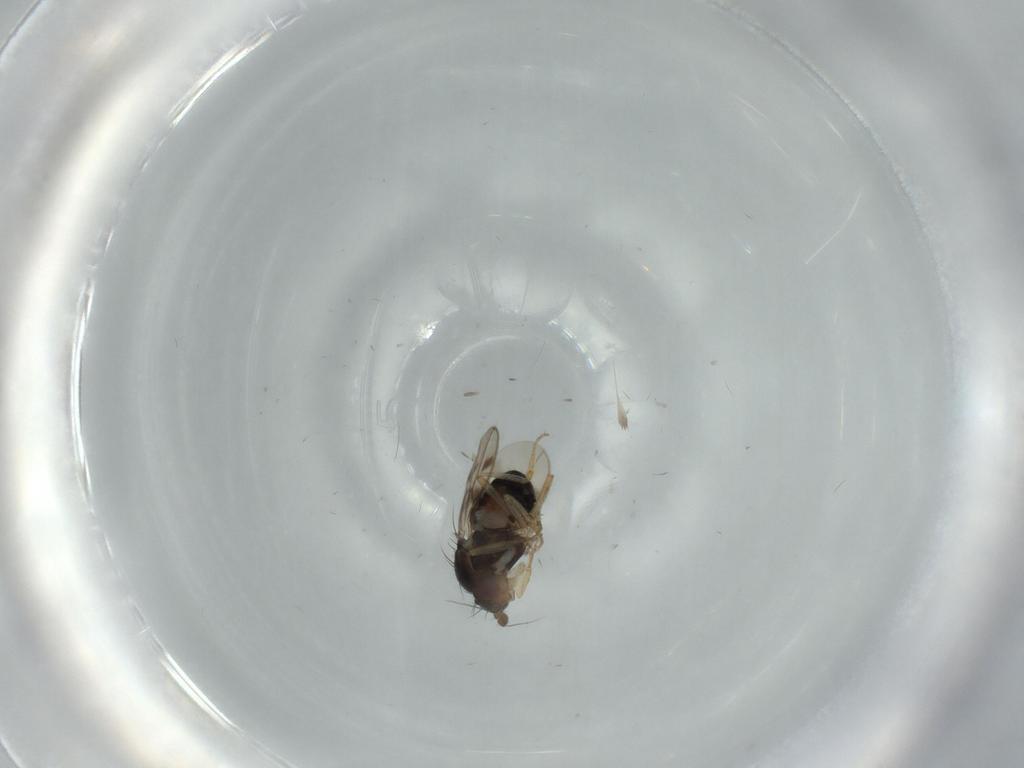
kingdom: Animalia
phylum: Arthropoda
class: Insecta
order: Diptera
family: Sphaeroceridae
